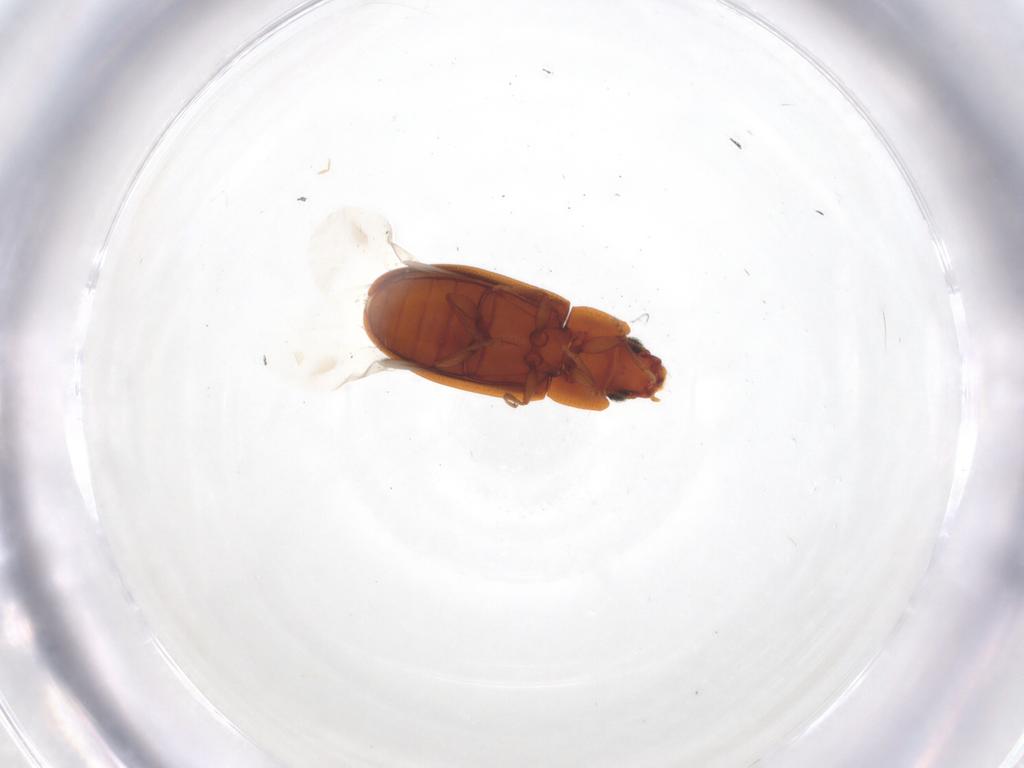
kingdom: Animalia
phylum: Arthropoda
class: Insecta
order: Coleoptera
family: Laemophloeidae
